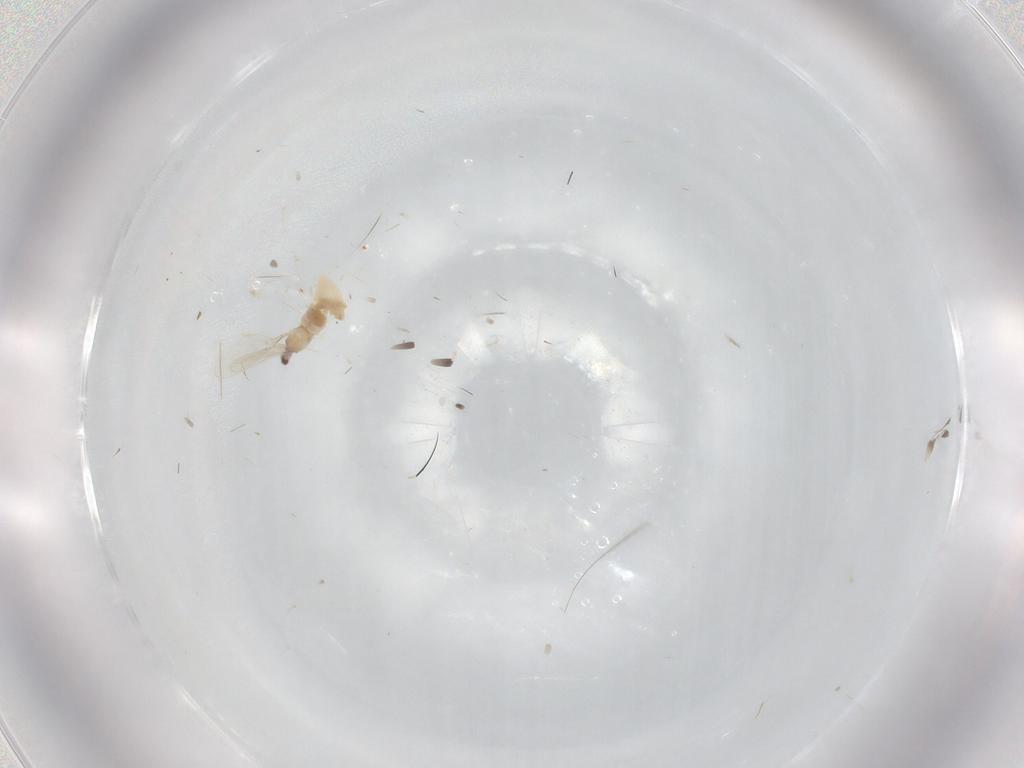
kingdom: Animalia
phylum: Arthropoda
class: Insecta
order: Diptera
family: Cecidomyiidae
